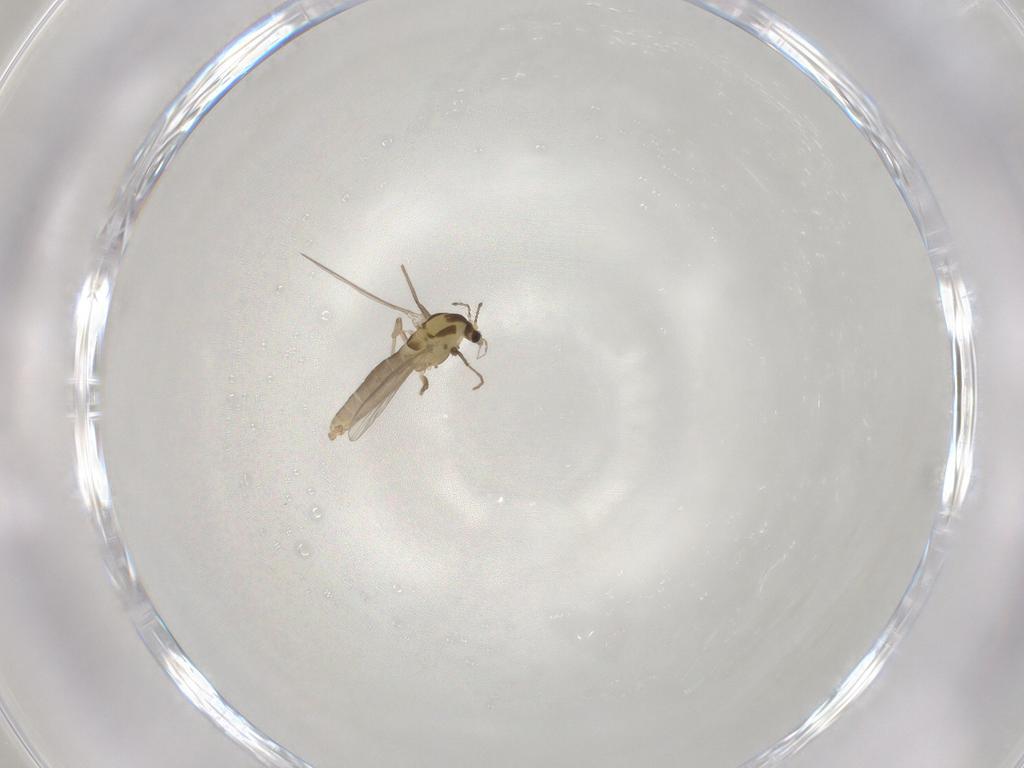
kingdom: Animalia
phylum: Arthropoda
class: Insecta
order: Diptera
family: Chironomidae
